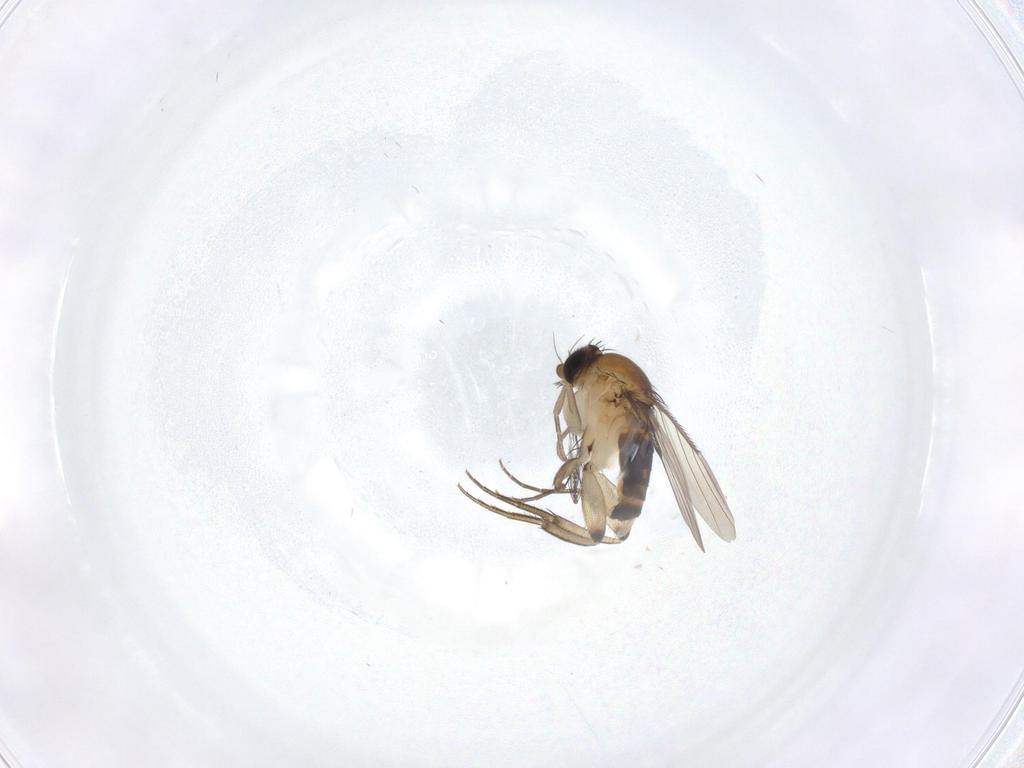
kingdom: Animalia
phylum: Arthropoda
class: Insecta
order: Diptera
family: Phoridae
